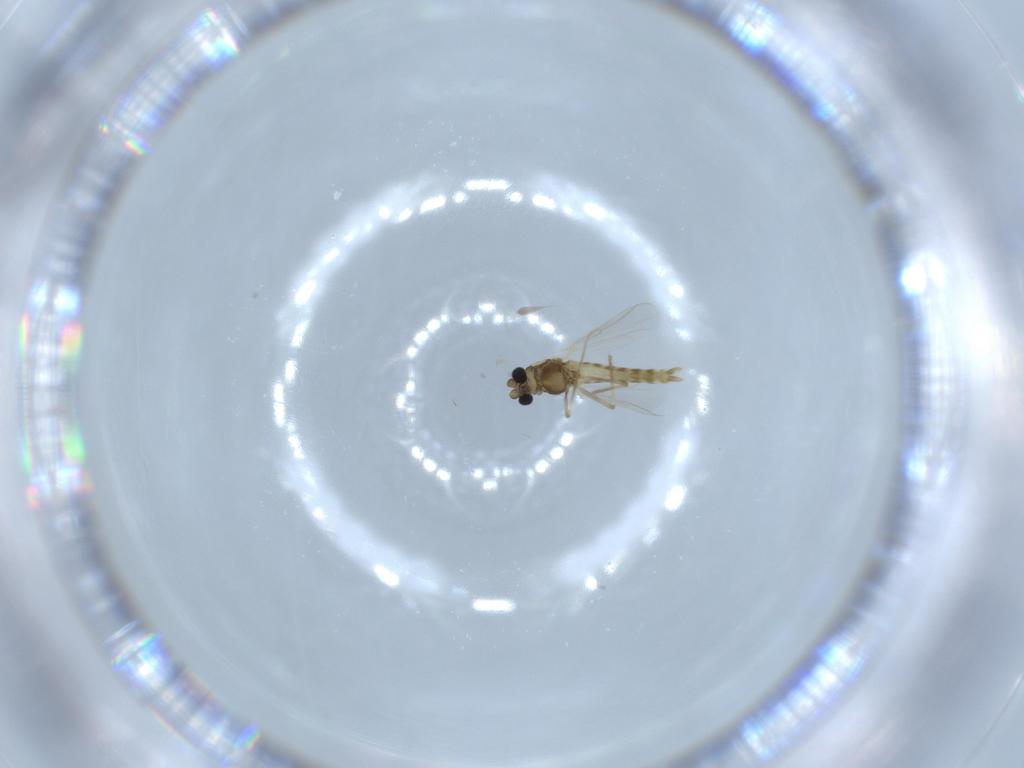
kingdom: Animalia
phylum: Arthropoda
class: Insecta
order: Diptera
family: Chironomidae
